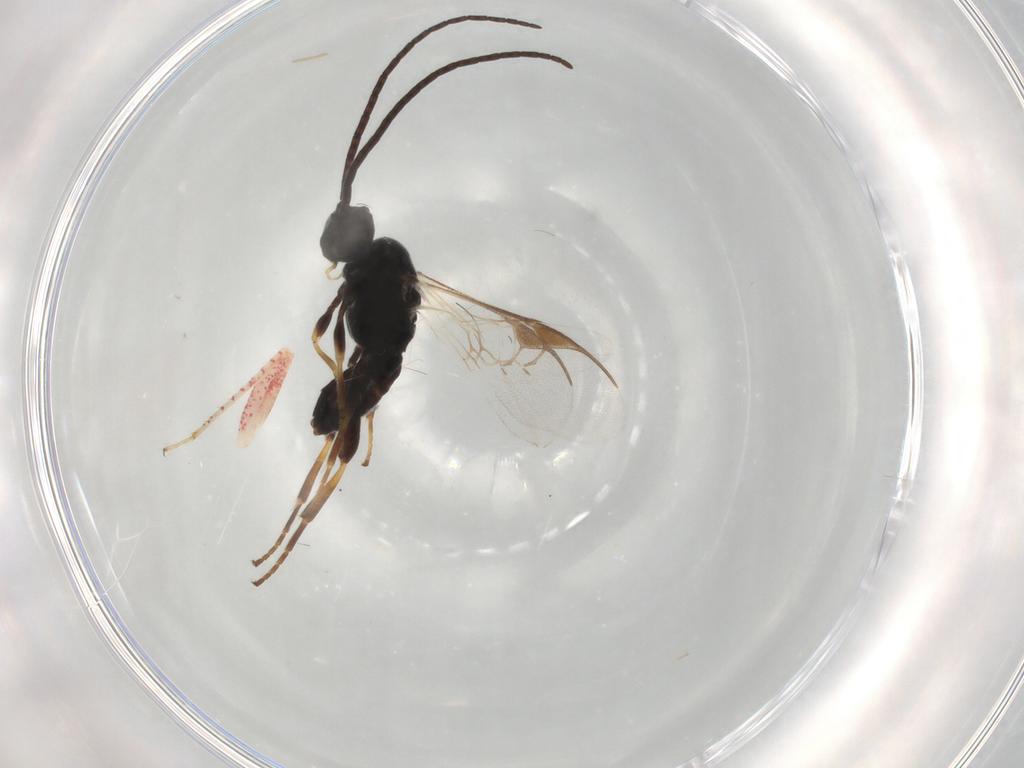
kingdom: Animalia
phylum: Arthropoda
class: Insecta
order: Hymenoptera
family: Braconidae
